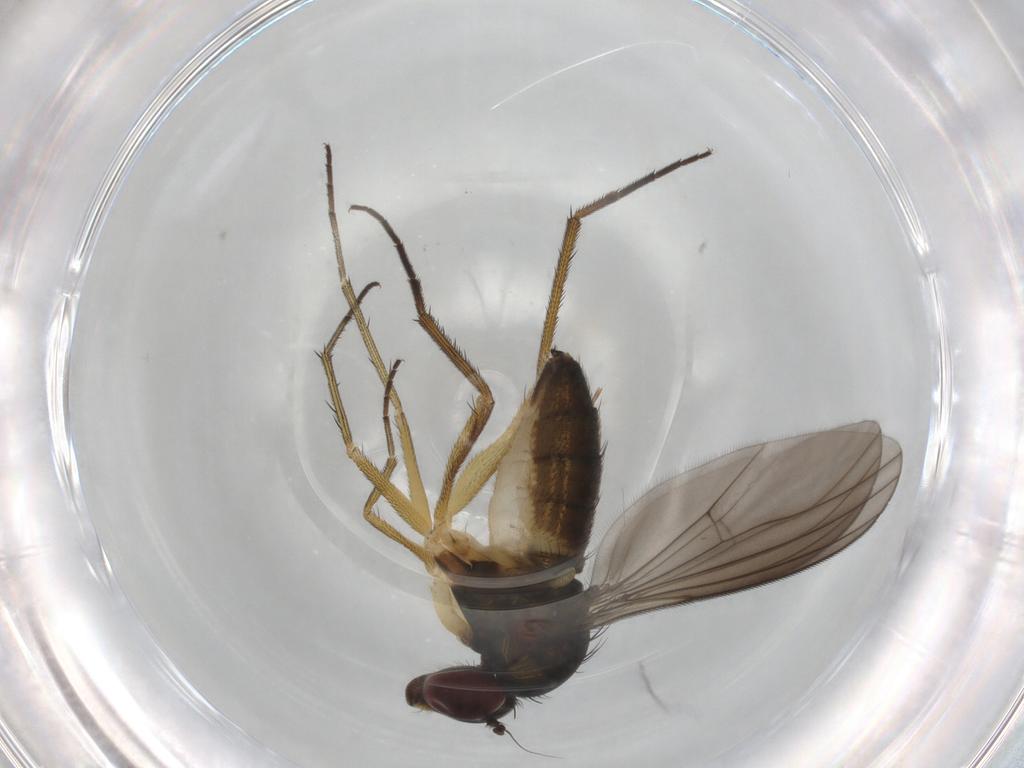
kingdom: Animalia
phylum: Arthropoda
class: Insecta
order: Diptera
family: Dolichopodidae
